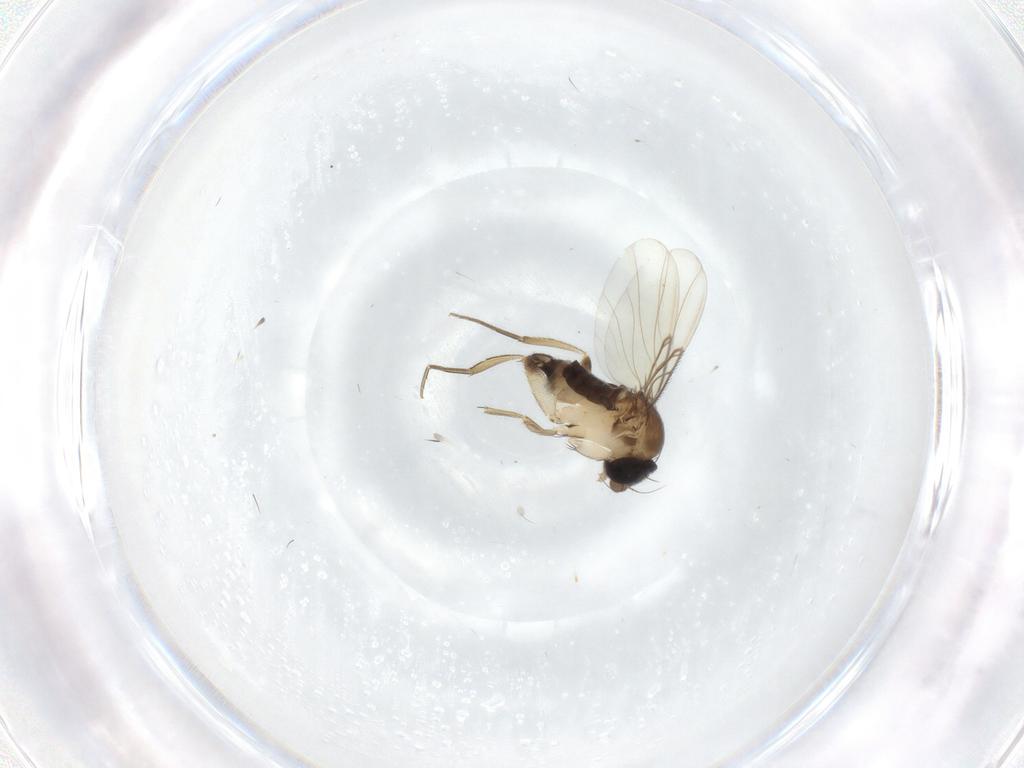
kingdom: Animalia
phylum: Arthropoda
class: Insecta
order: Diptera
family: Phoridae
